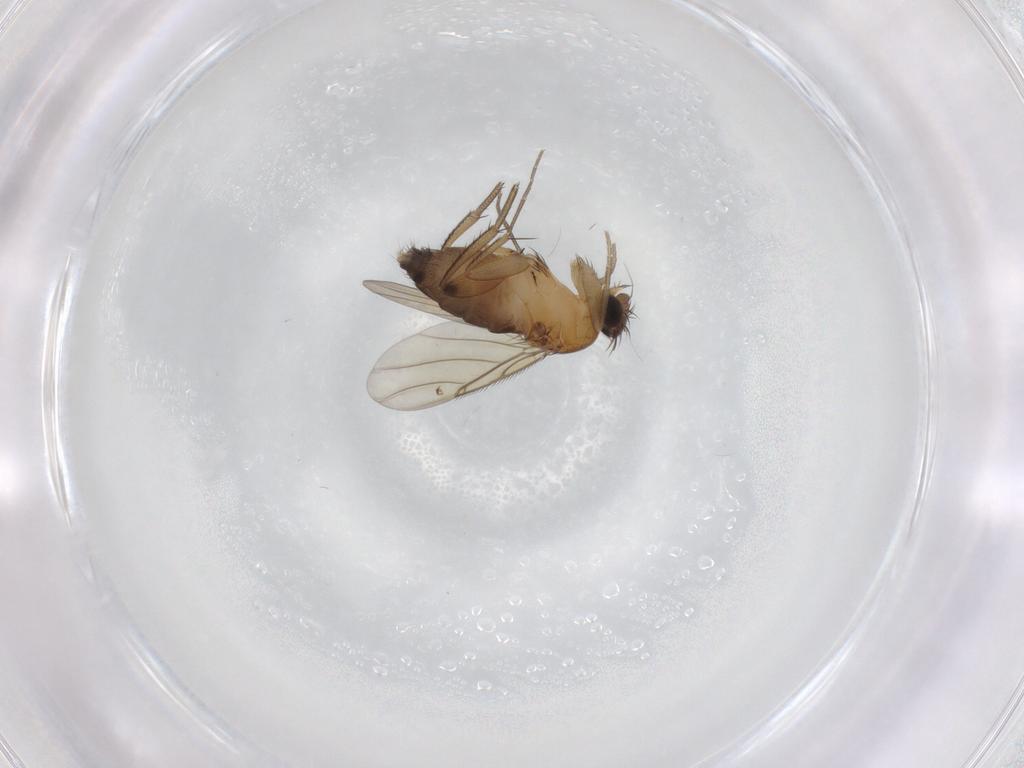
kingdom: Animalia
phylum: Arthropoda
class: Insecta
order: Diptera
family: Phoridae
